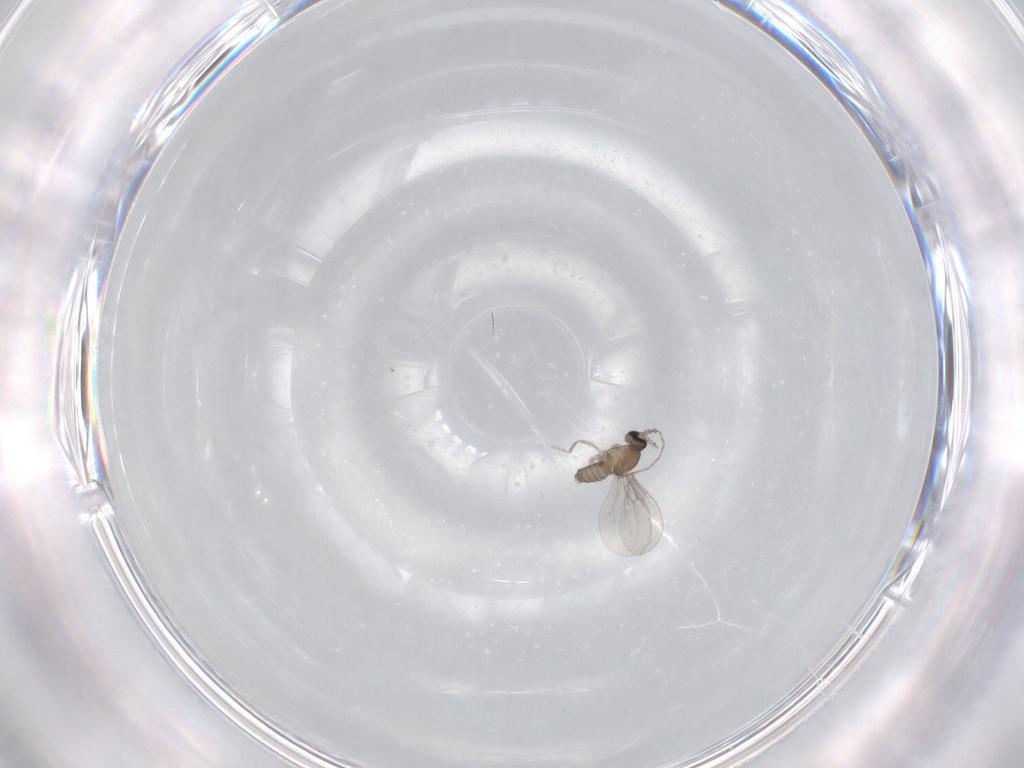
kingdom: Animalia
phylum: Arthropoda
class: Insecta
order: Diptera
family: Cecidomyiidae
